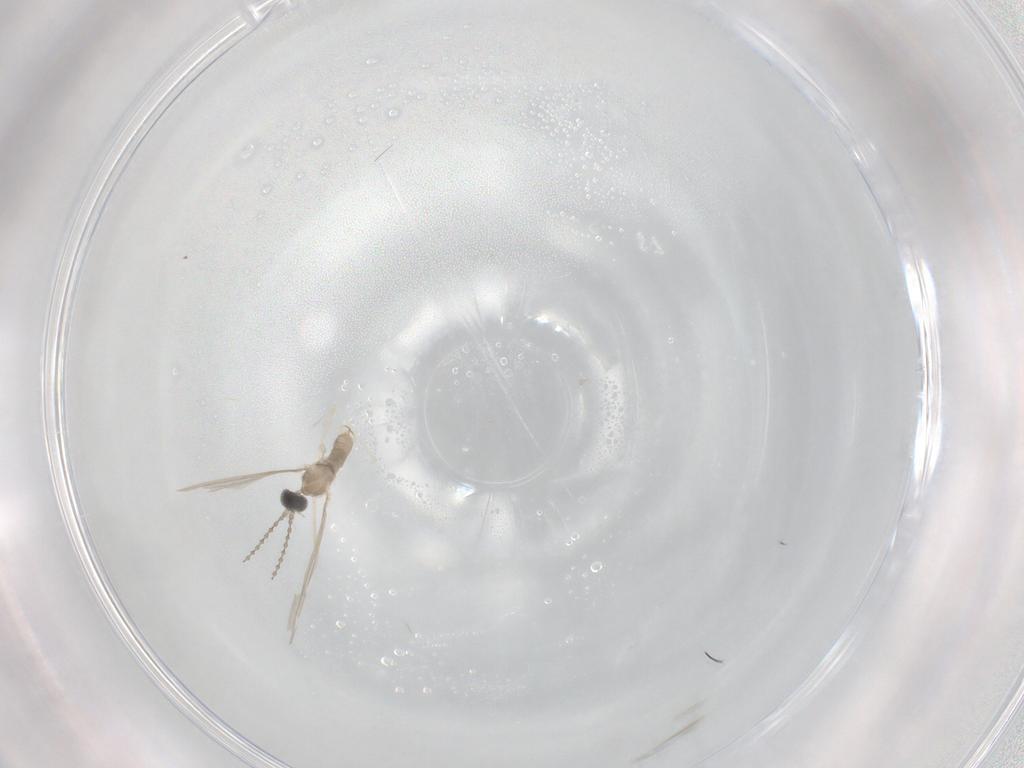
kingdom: Animalia
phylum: Arthropoda
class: Insecta
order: Diptera
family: Cecidomyiidae
